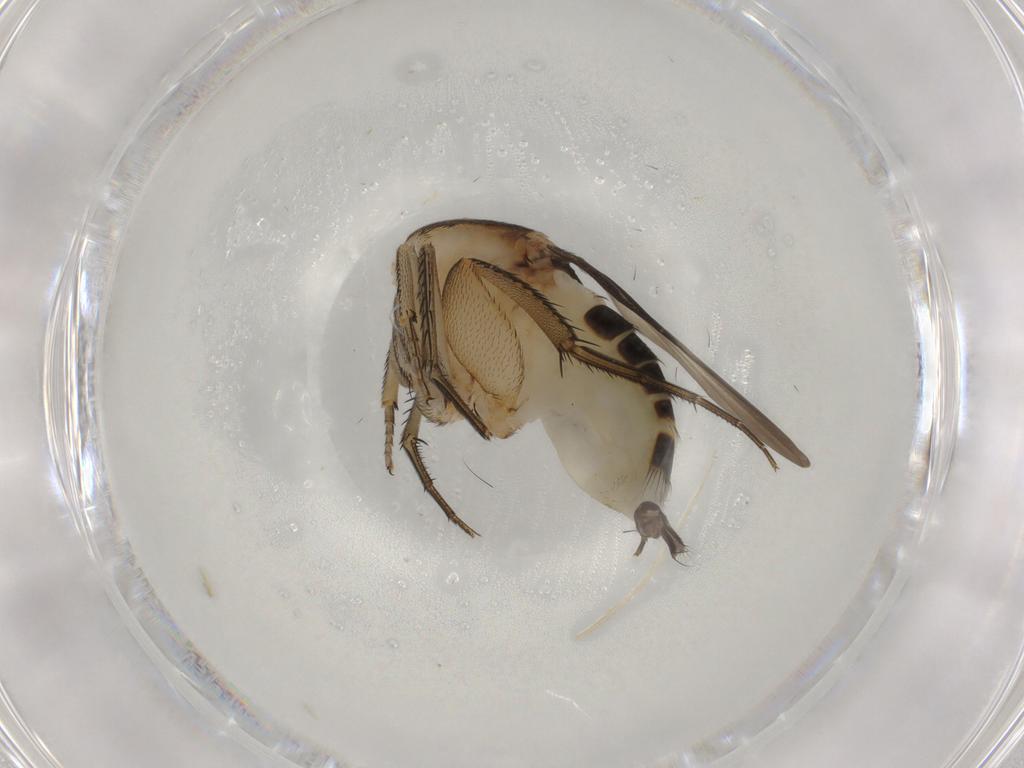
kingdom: Animalia
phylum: Arthropoda
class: Insecta
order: Diptera
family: Phoridae
